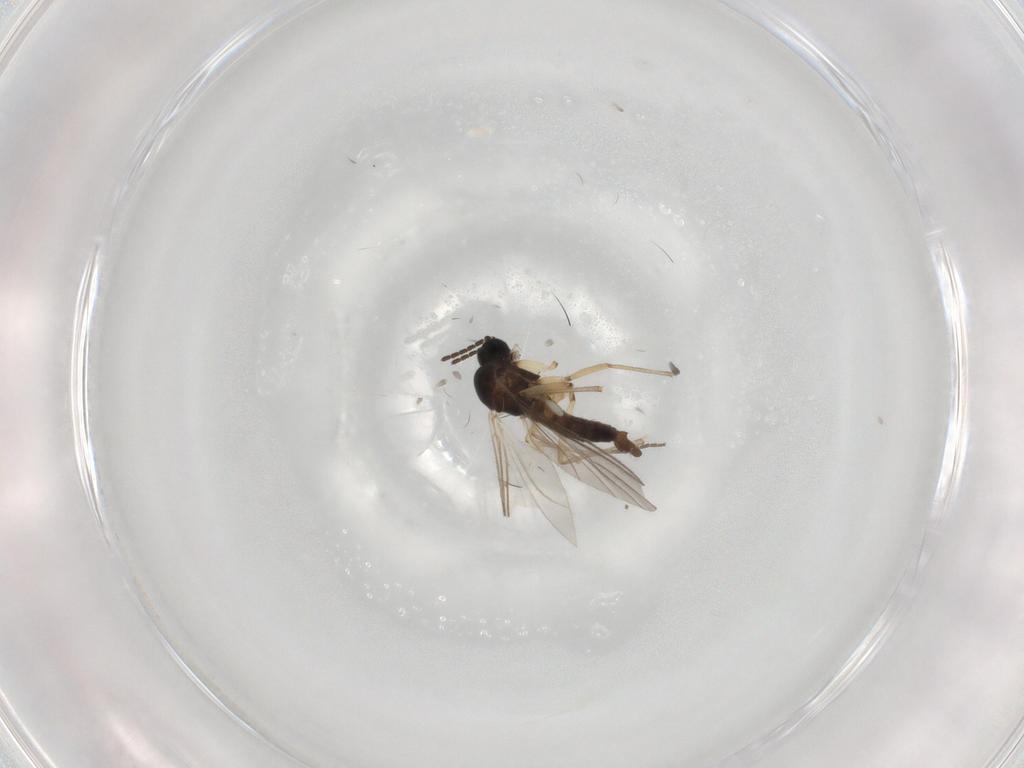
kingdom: Animalia
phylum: Arthropoda
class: Insecta
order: Diptera
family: Sciaridae
